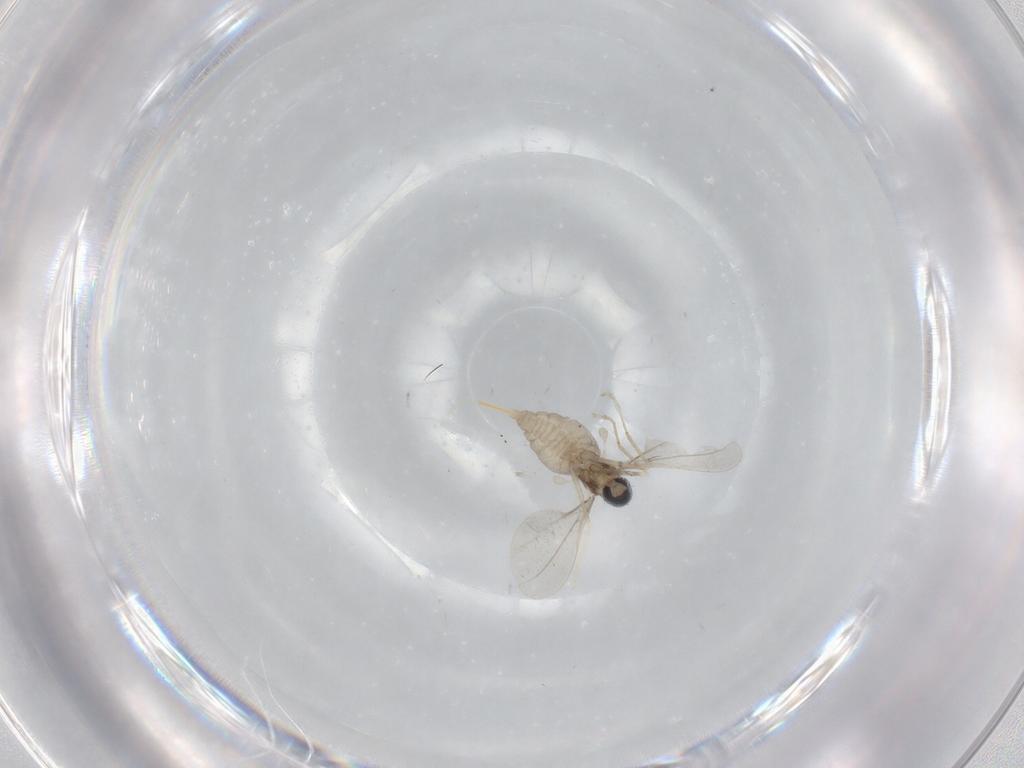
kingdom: Animalia
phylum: Arthropoda
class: Insecta
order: Diptera
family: Cecidomyiidae
